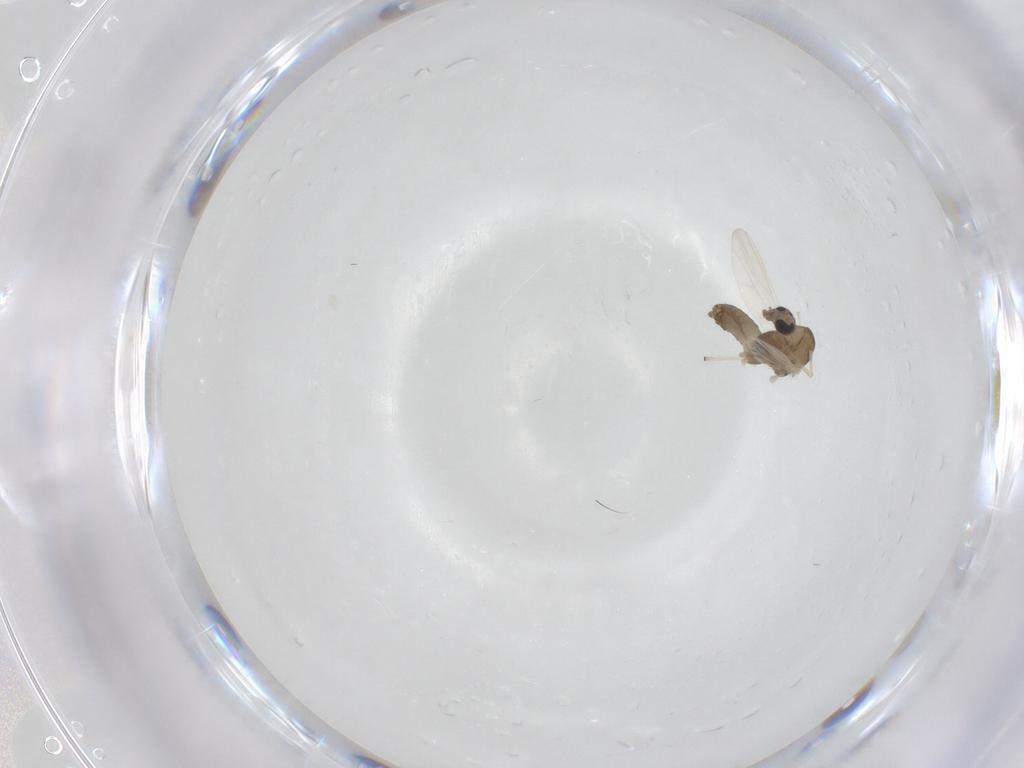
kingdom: Animalia
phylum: Arthropoda
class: Insecta
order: Diptera
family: Chironomidae
